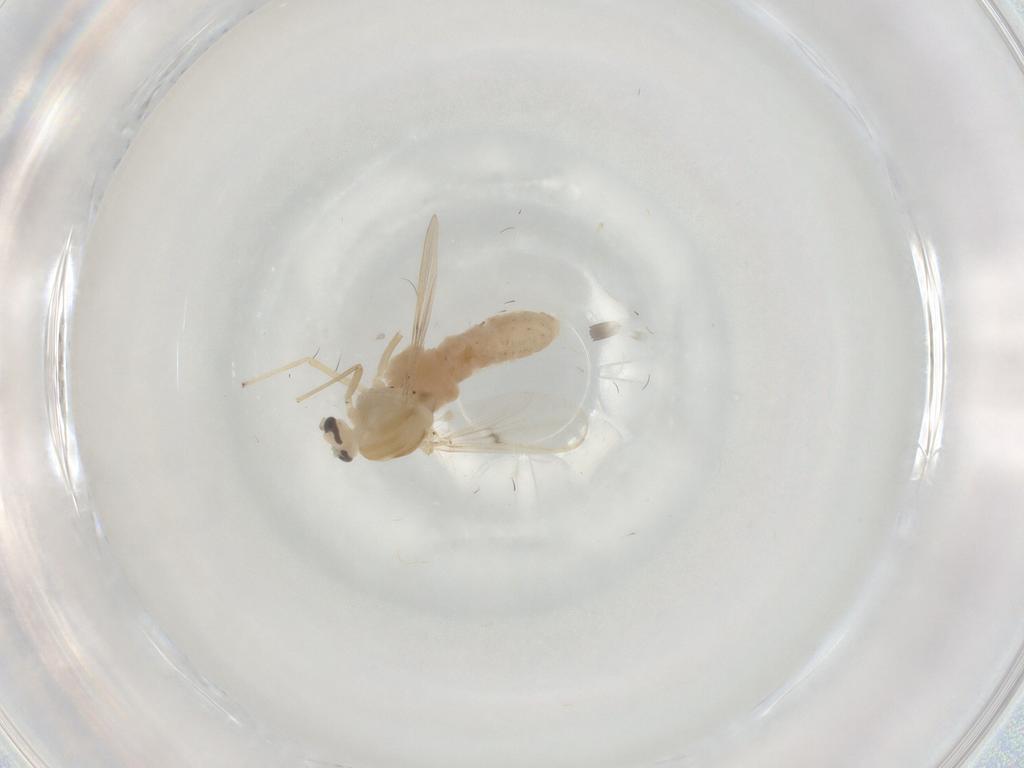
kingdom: Animalia
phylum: Arthropoda
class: Insecta
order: Diptera
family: Chironomidae
